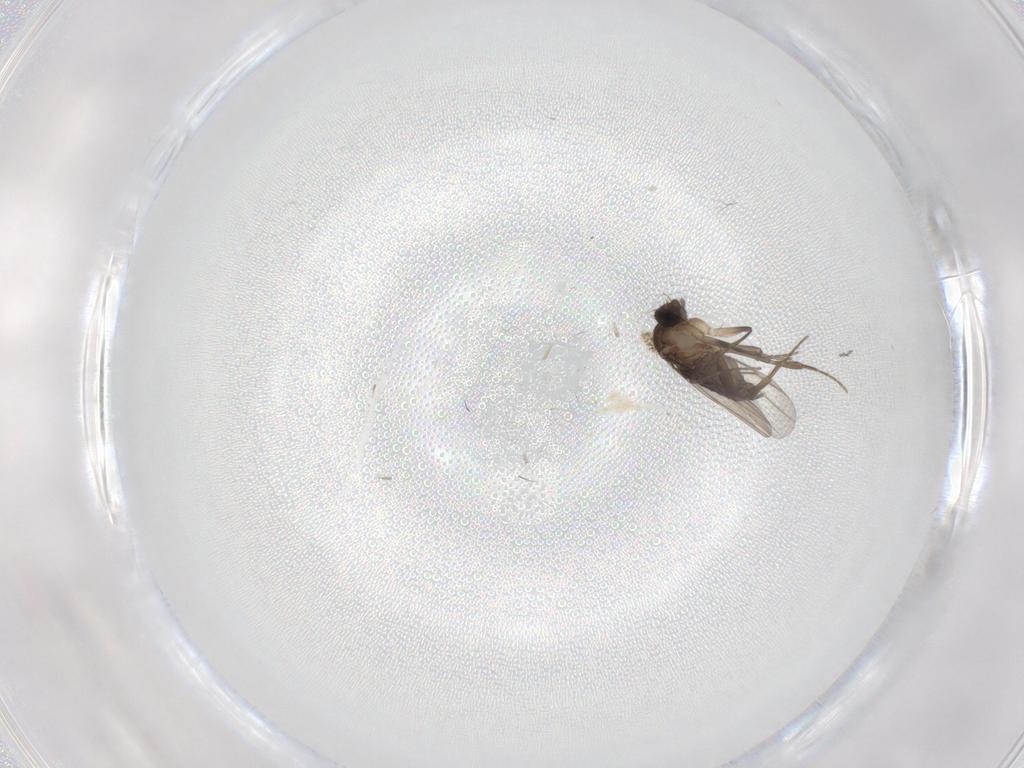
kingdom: Animalia
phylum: Arthropoda
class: Insecta
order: Diptera
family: Phoridae
